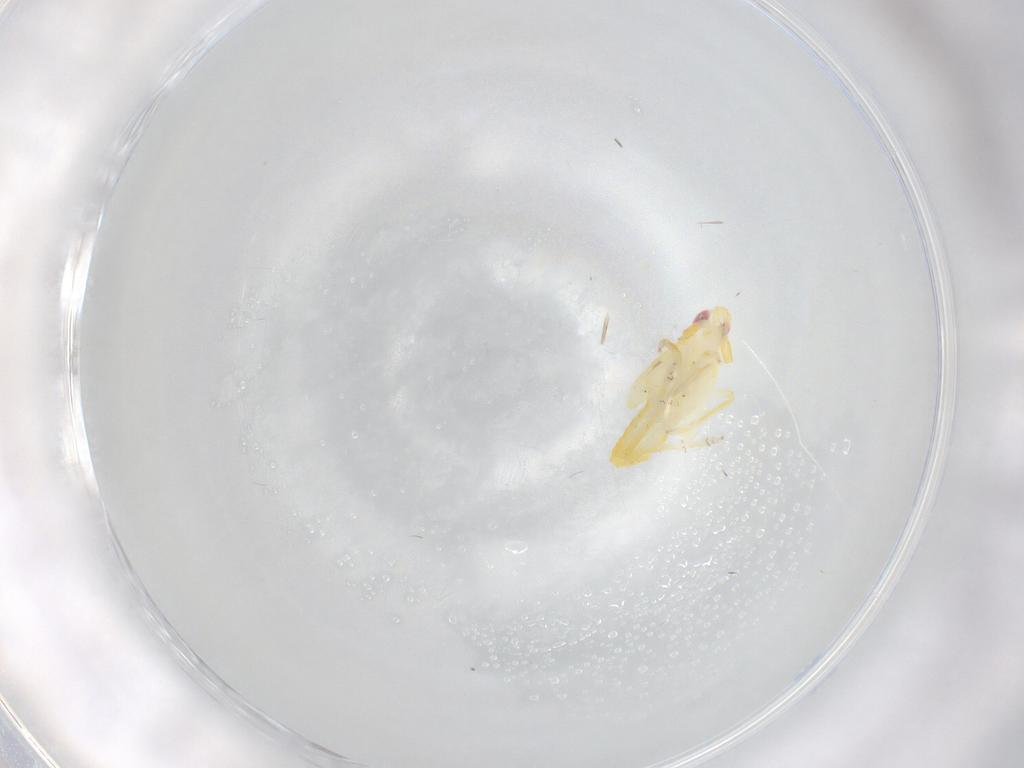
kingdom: Animalia
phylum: Arthropoda
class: Insecta
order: Hemiptera
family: Delphacidae
